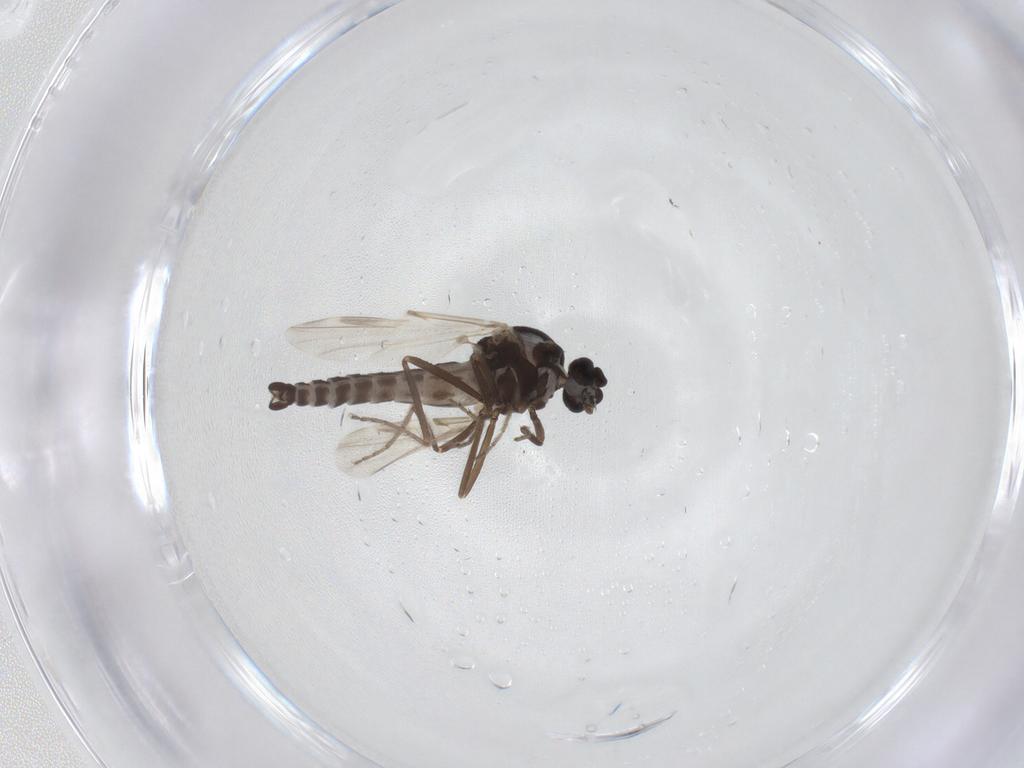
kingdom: Animalia
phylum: Arthropoda
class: Insecta
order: Diptera
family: Ceratopogonidae
